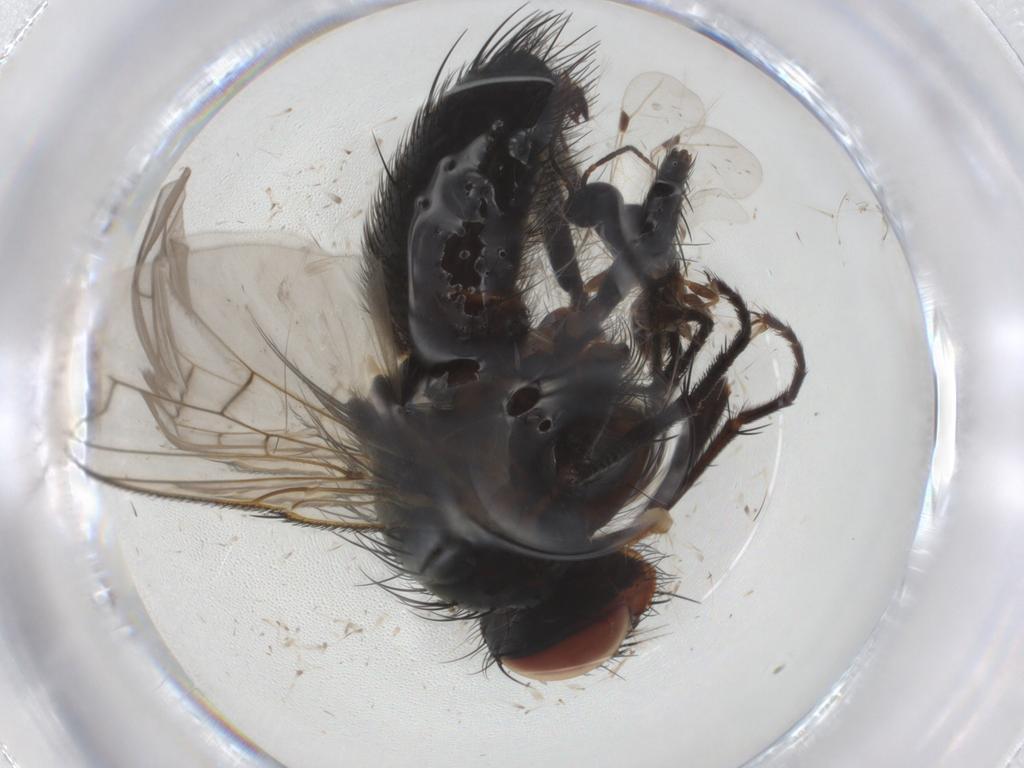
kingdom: Animalia
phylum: Arthropoda
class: Insecta
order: Diptera
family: Tachinidae
